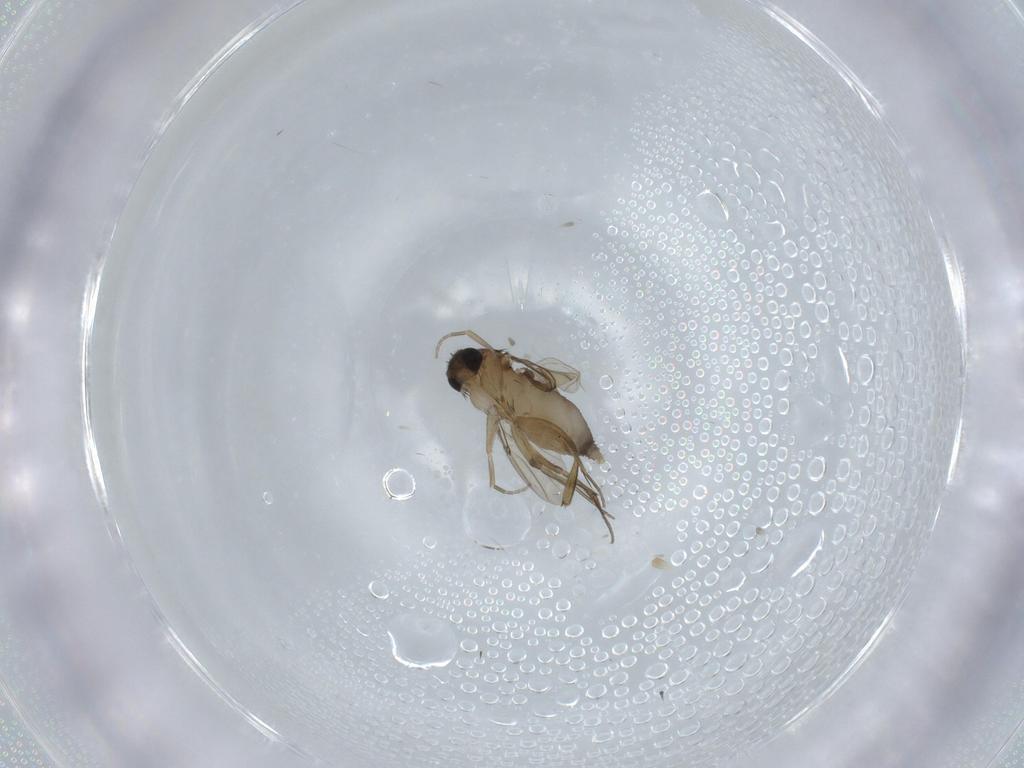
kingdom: Animalia
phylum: Arthropoda
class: Insecta
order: Diptera
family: Phoridae
